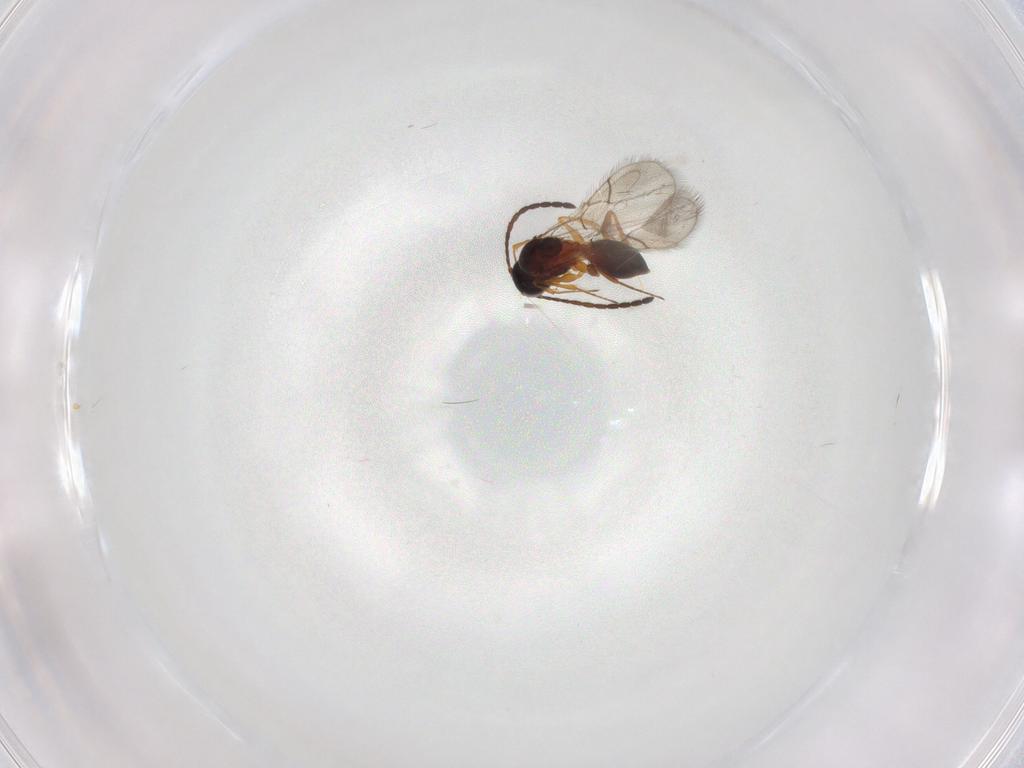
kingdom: Animalia
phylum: Arthropoda
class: Insecta
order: Hymenoptera
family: Figitidae
